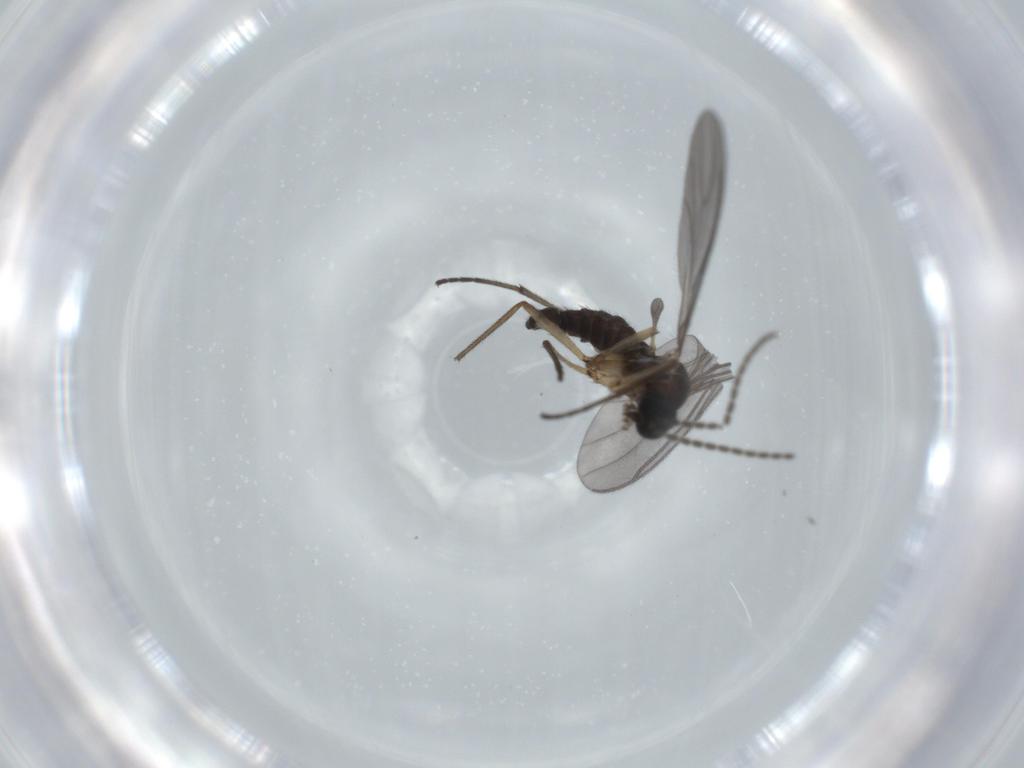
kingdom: Animalia
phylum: Arthropoda
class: Insecta
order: Diptera
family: Sciaridae
